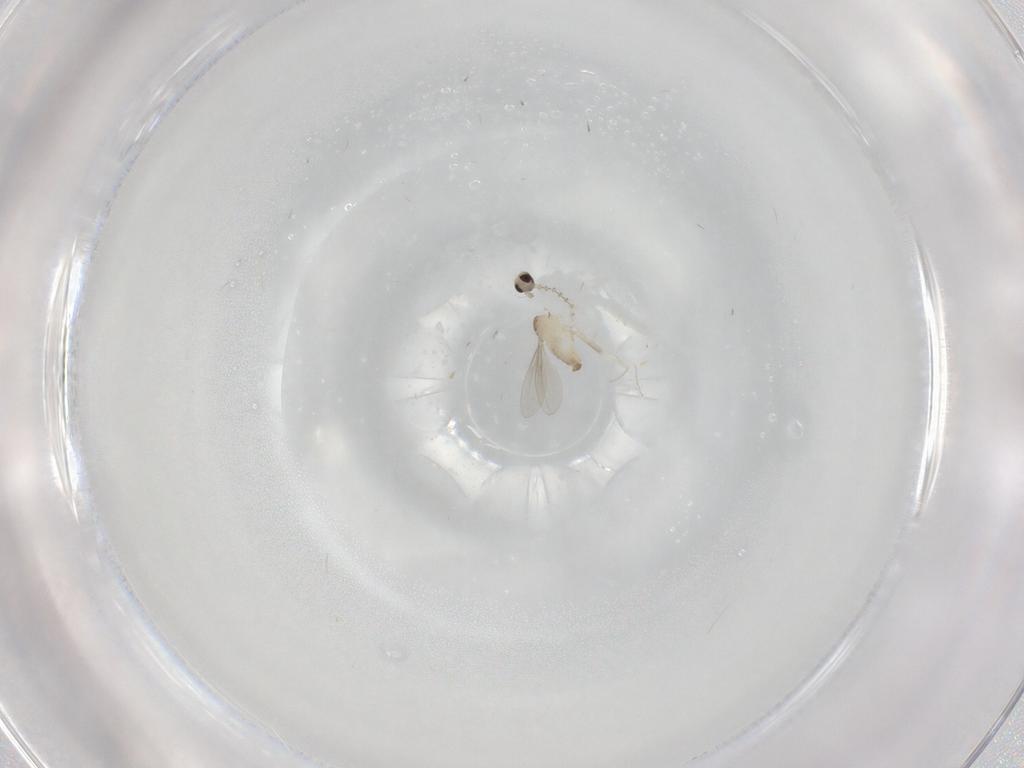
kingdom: Animalia
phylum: Arthropoda
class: Insecta
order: Diptera
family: Cecidomyiidae
